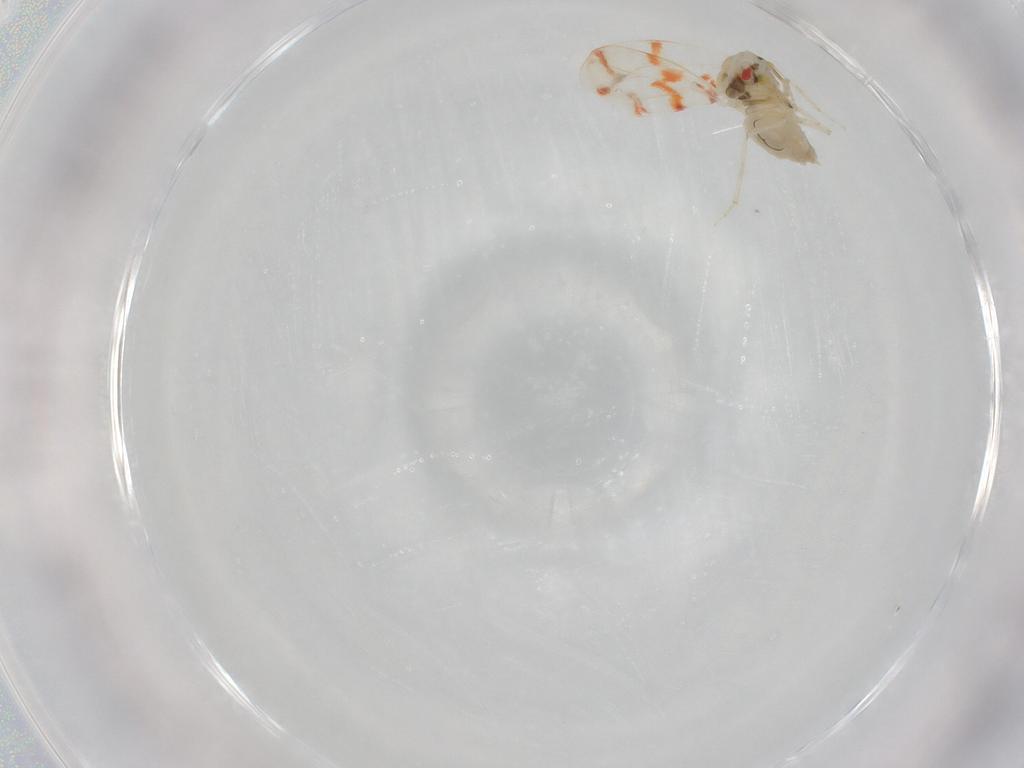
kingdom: Animalia
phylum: Arthropoda
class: Insecta
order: Hemiptera
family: Aleyrodidae
